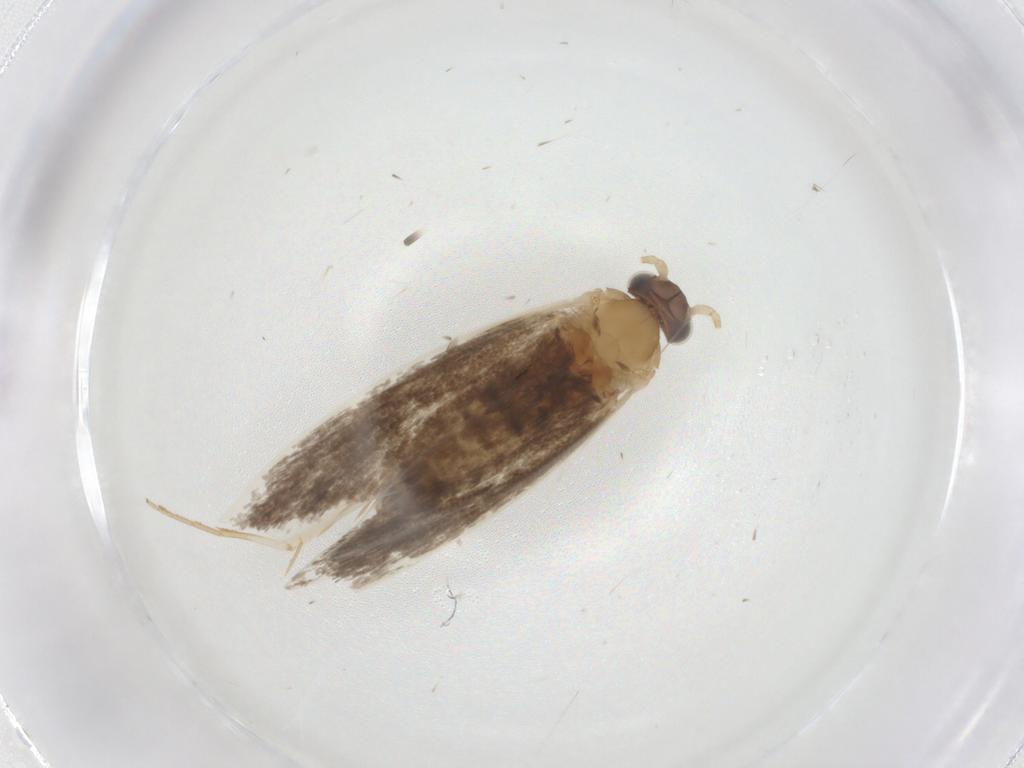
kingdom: Animalia
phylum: Arthropoda
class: Insecta
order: Lepidoptera
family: Tineidae
